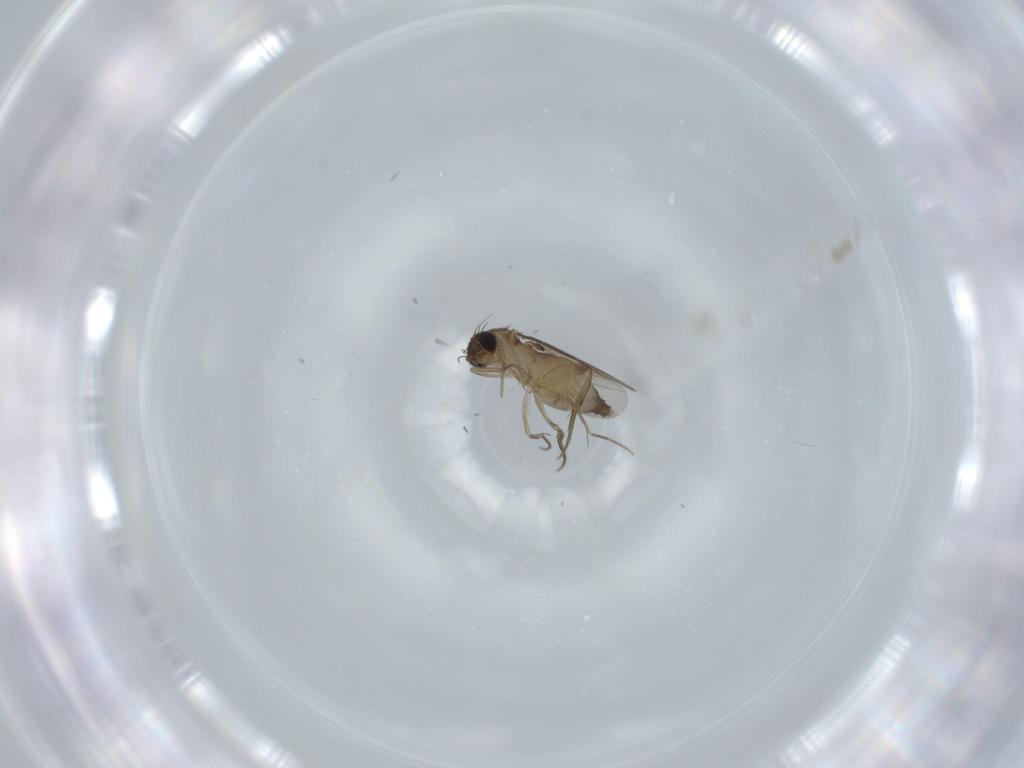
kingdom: Animalia
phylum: Arthropoda
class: Insecta
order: Diptera
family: Phoridae
